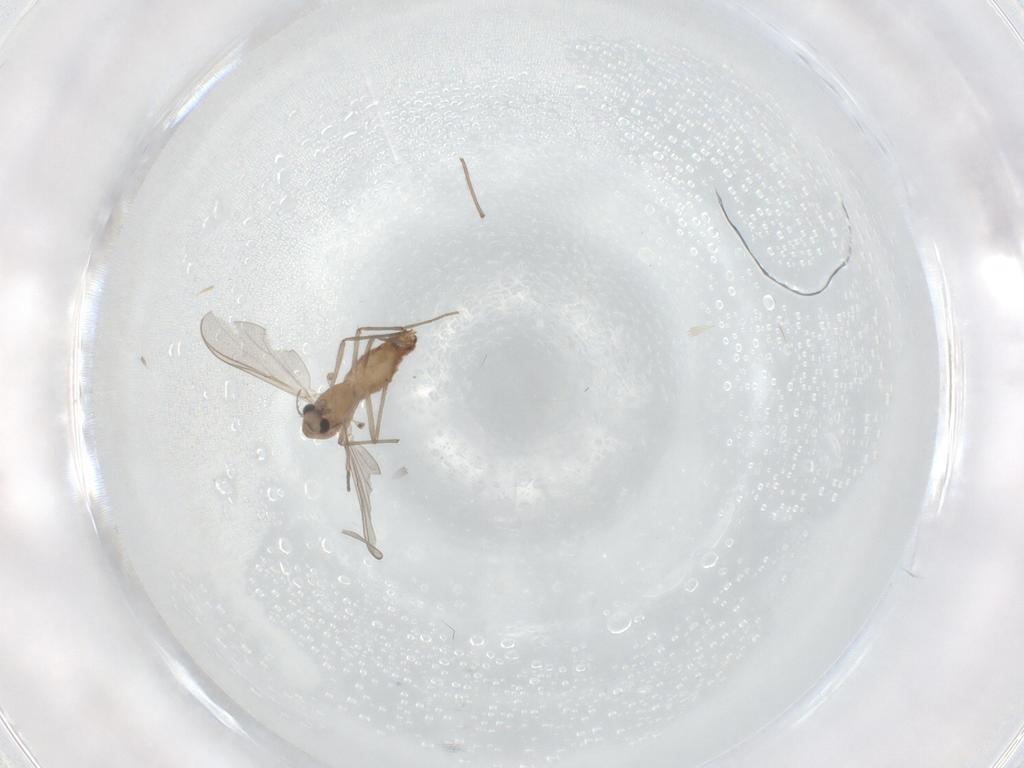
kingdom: Animalia
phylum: Arthropoda
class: Insecta
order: Diptera
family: Chironomidae
